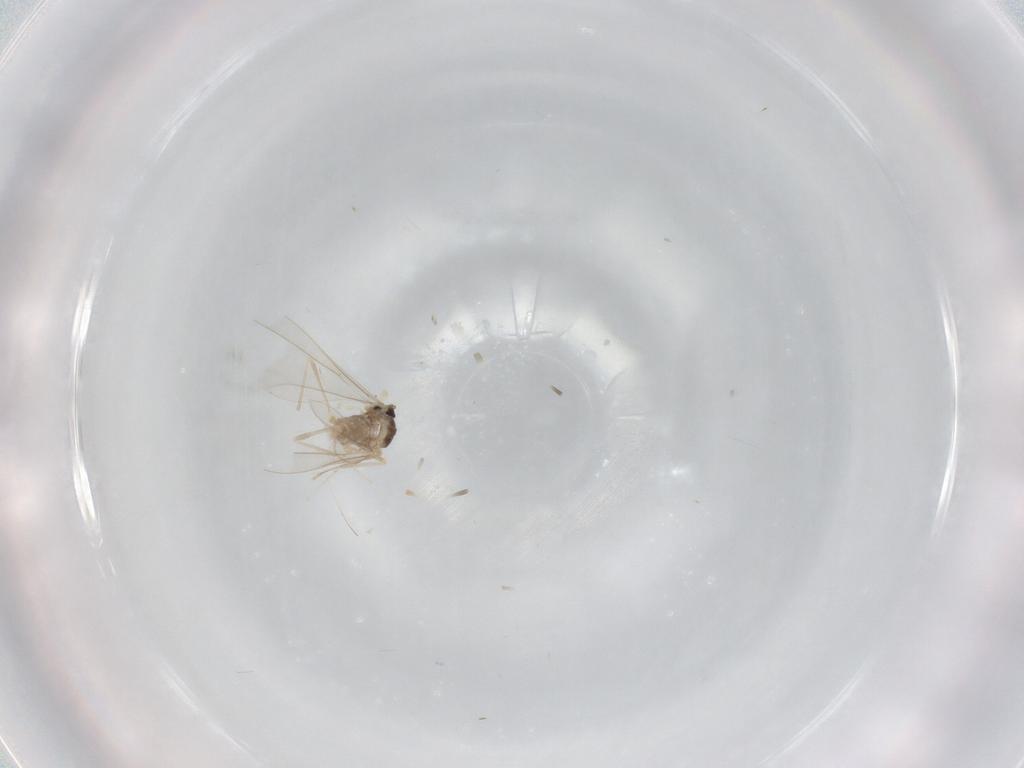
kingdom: Animalia
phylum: Arthropoda
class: Insecta
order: Diptera
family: Cecidomyiidae
